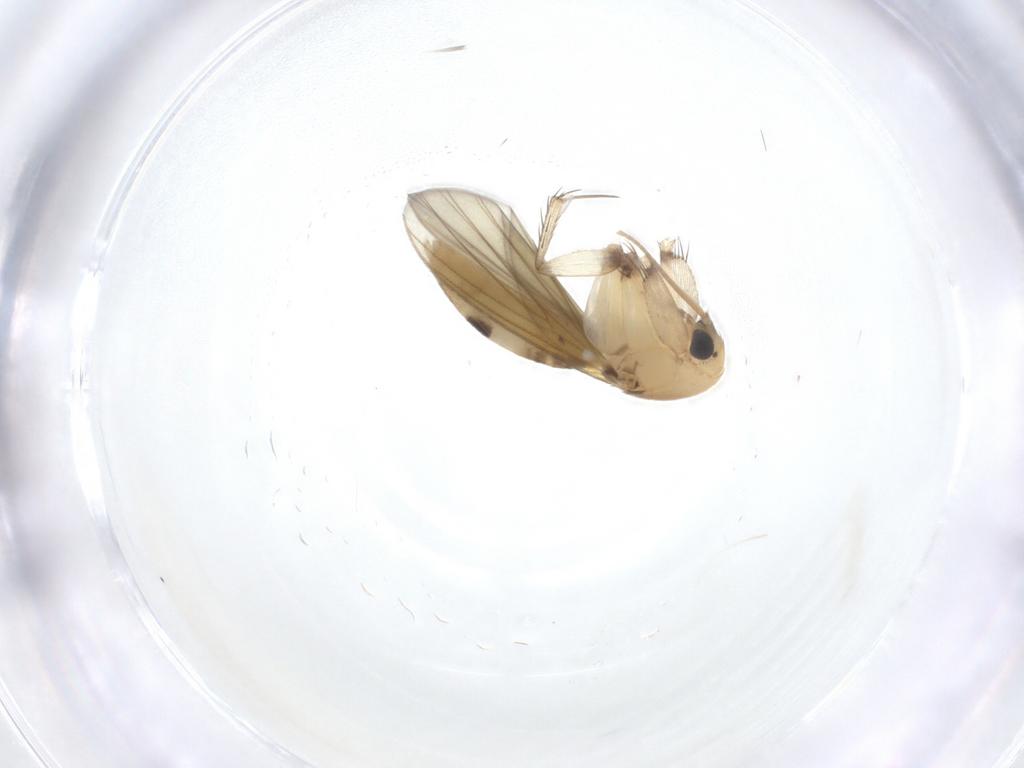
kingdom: Animalia
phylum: Arthropoda
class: Insecta
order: Diptera
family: Mycetophilidae
